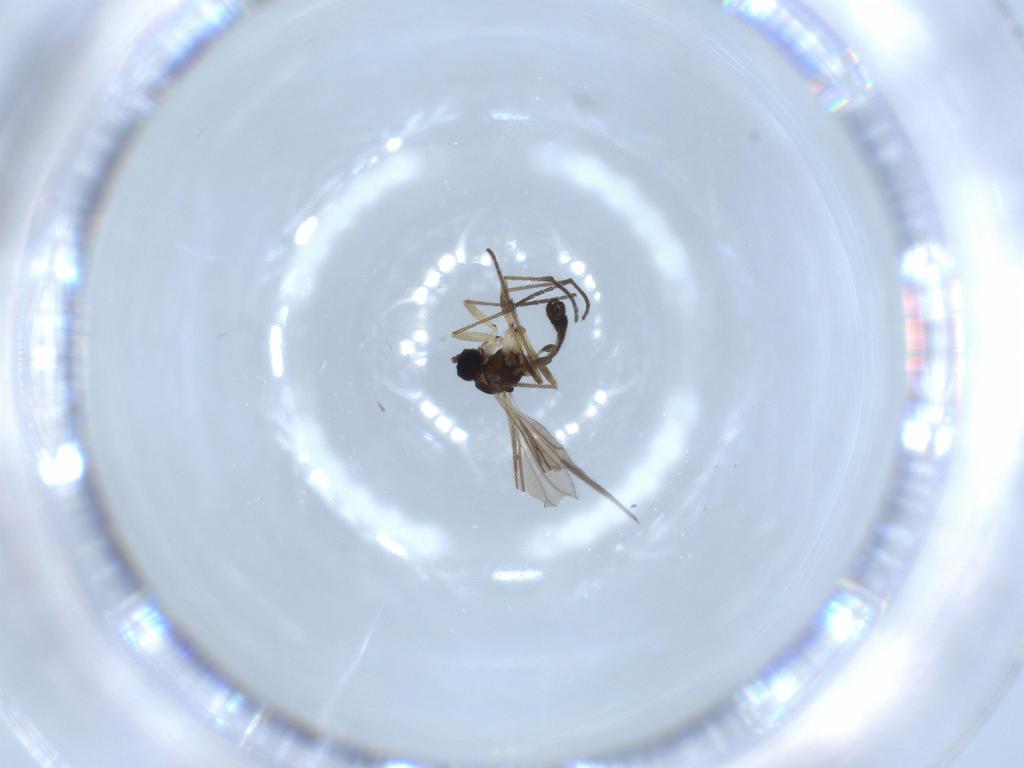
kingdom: Animalia
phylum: Arthropoda
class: Insecta
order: Diptera
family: Sciaridae
